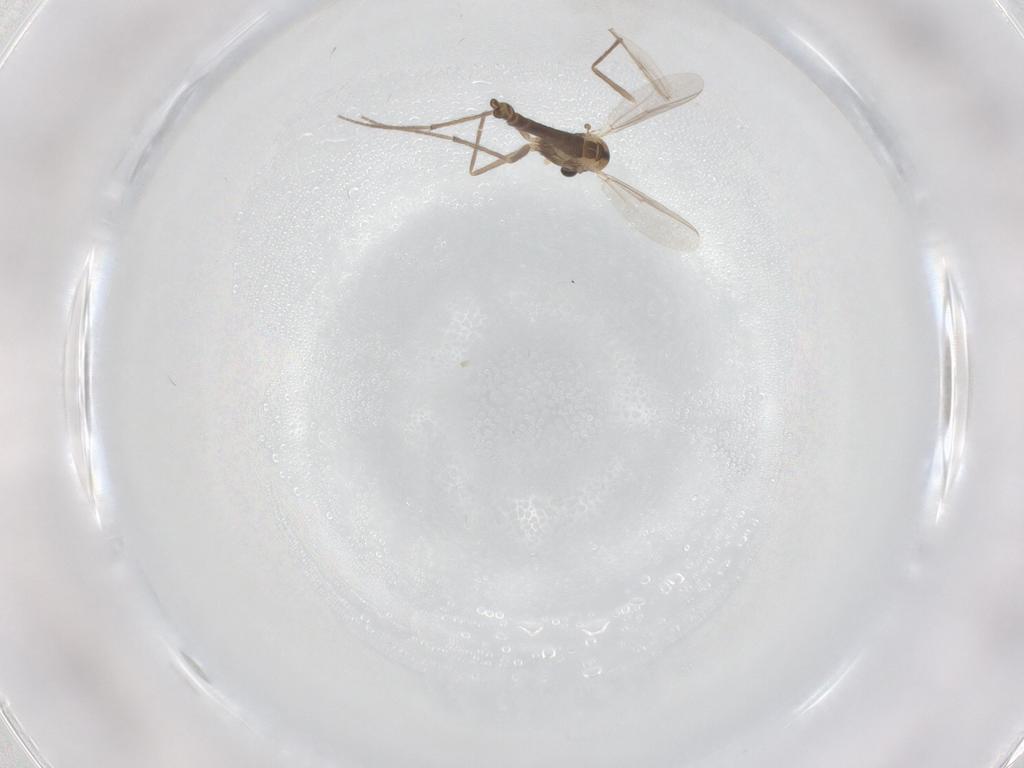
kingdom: Animalia
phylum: Arthropoda
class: Insecta
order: Diptera
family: Chironomidae
